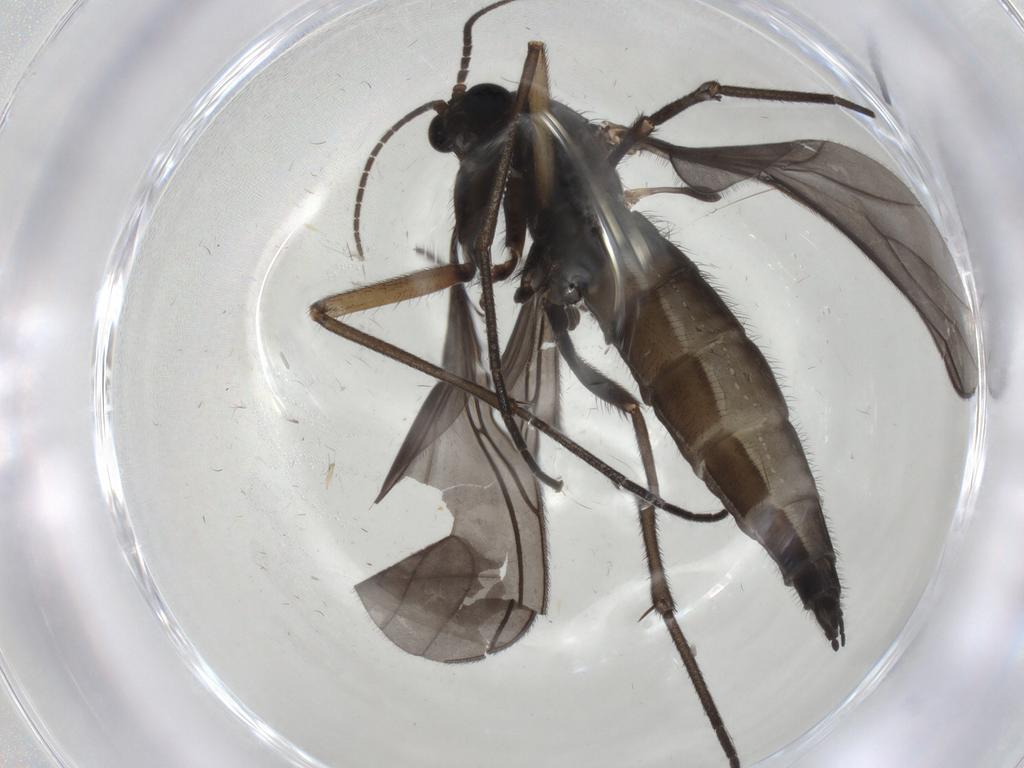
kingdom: Animalia
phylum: Arthropoda
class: Insecta
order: Diptera
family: Sciaridae
